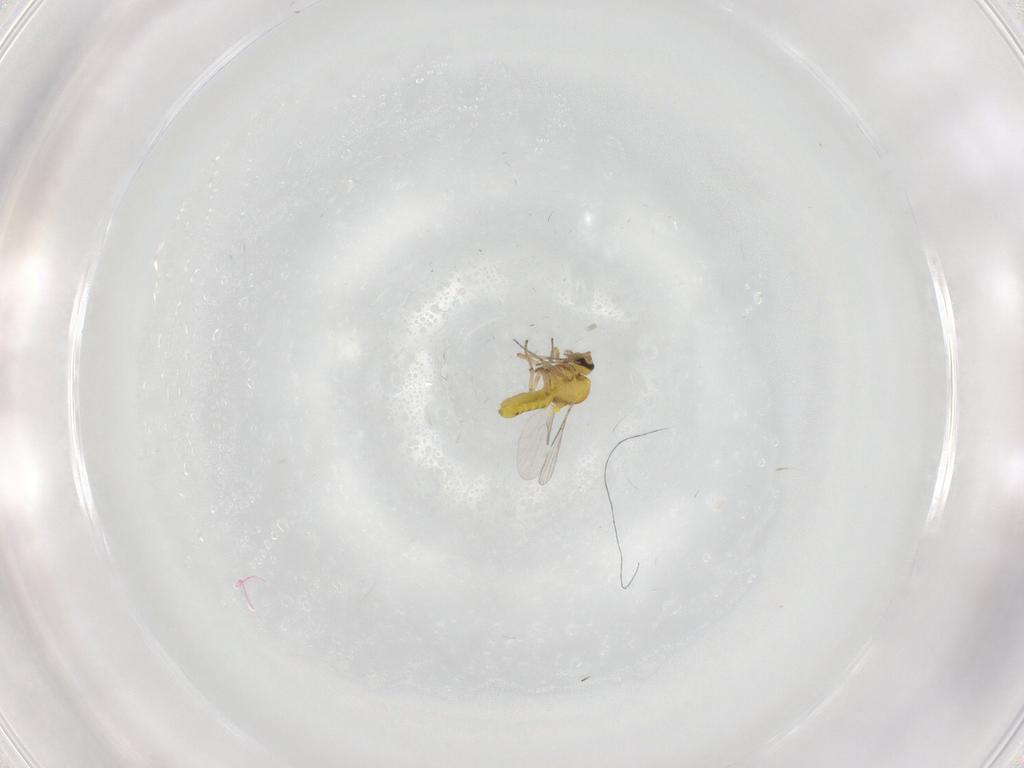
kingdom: Animalia
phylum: Arthropoda
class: Insecta
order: Diptera
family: Ceratopogonidae
